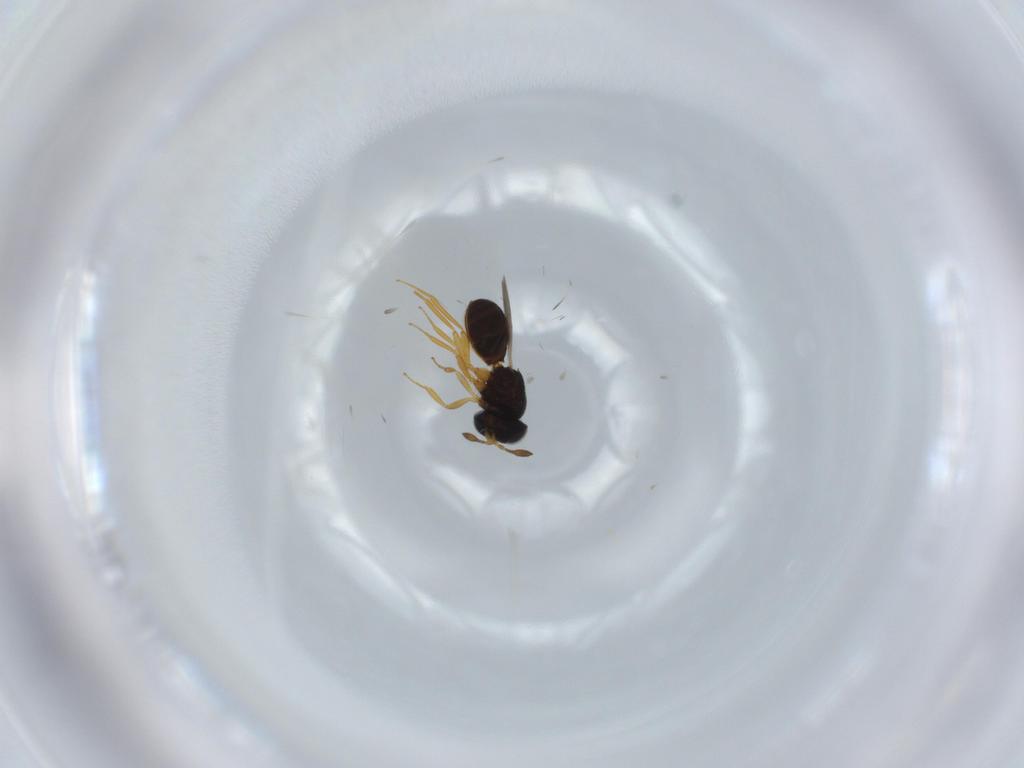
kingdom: Animalia
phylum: Arthropoda
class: Insecta
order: Hymenoptera
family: Scelionidae
